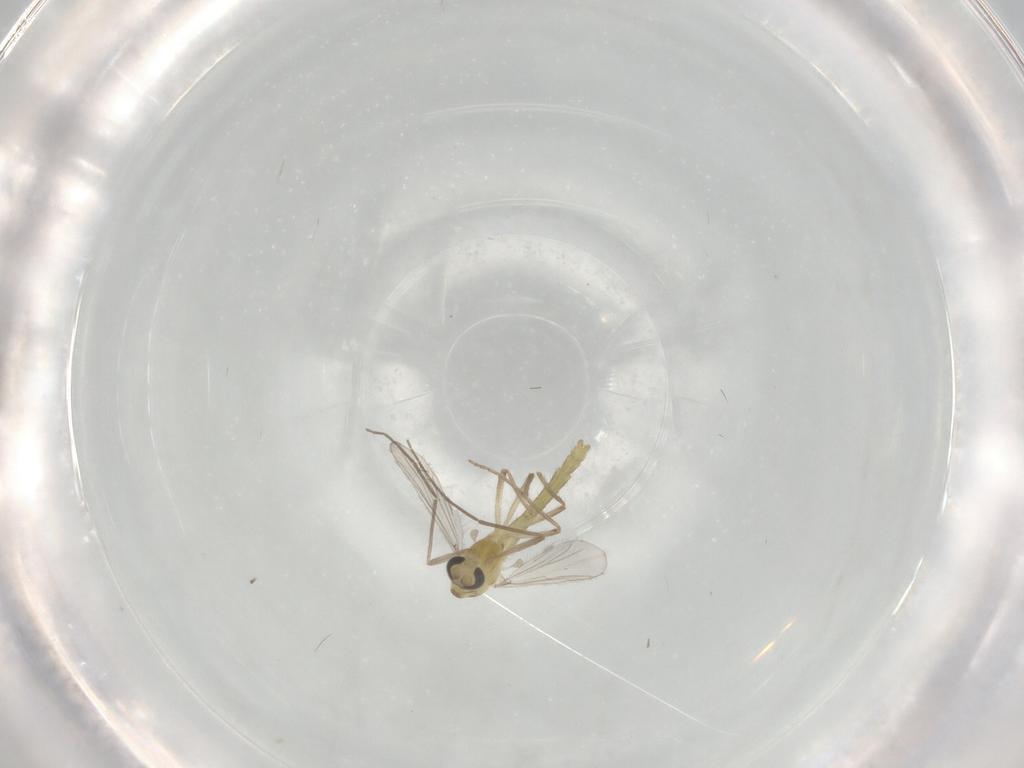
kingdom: Animalia
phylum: Arthropoda
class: Insecta
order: Diptera
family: Chironomidae
